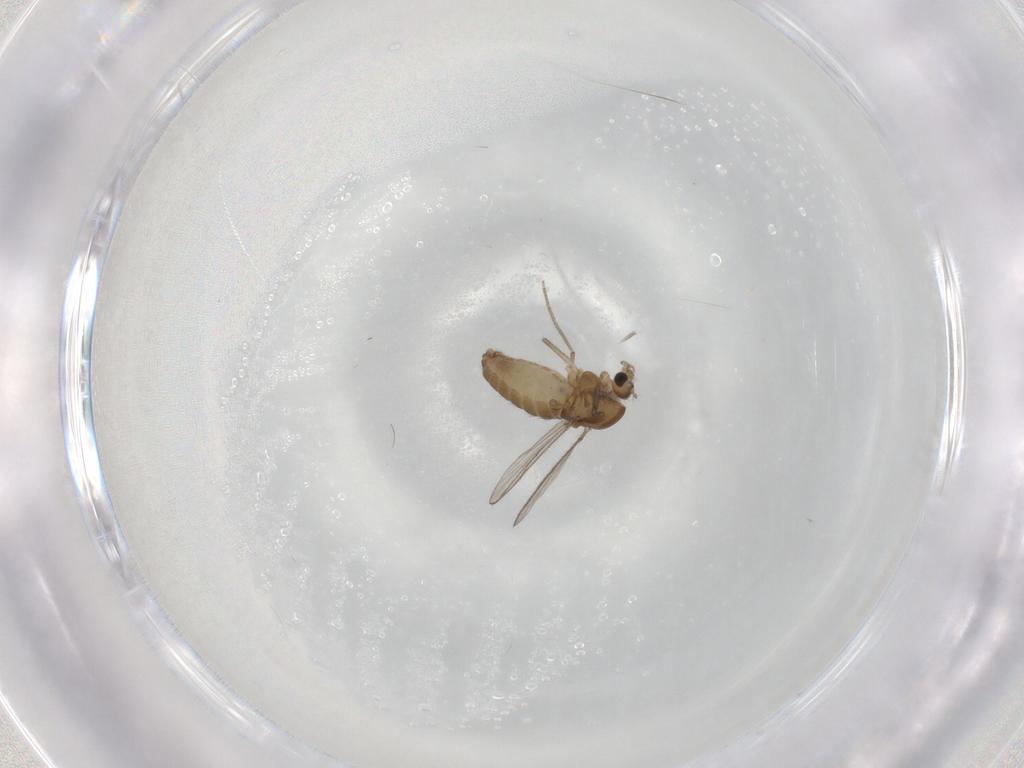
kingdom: Animalia
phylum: Arthropoda
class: Insecta
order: Diptera
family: Chironomidae
